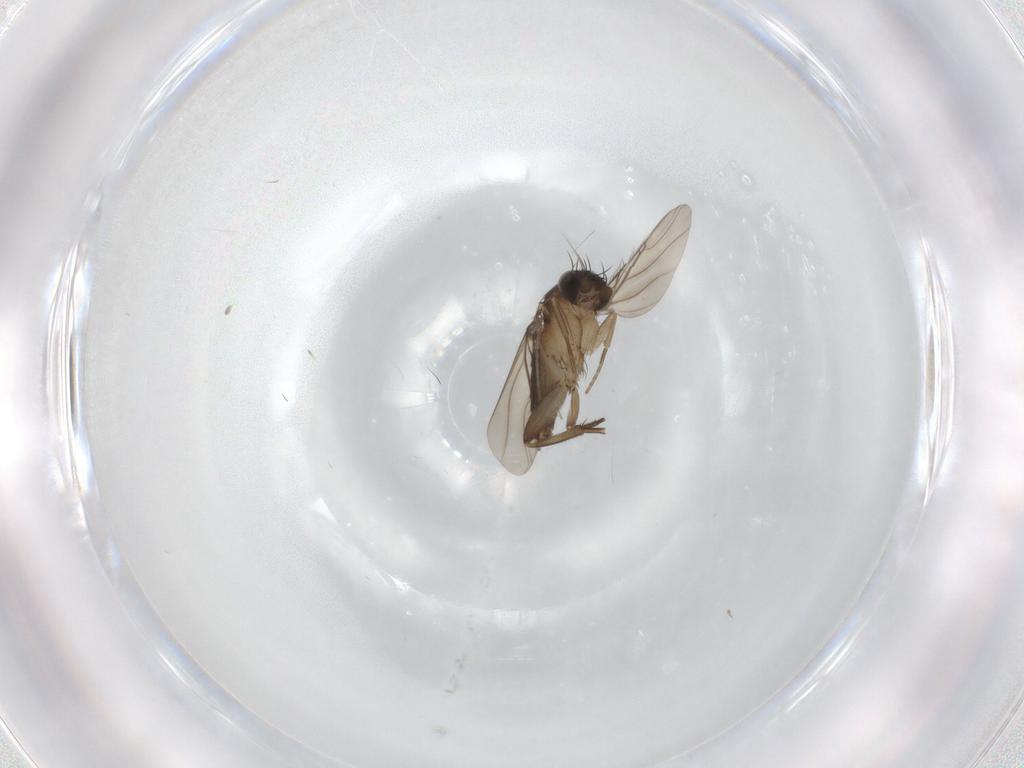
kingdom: Animalia
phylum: Arthropoda
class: Insecta
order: Diptera
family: Phoridae
